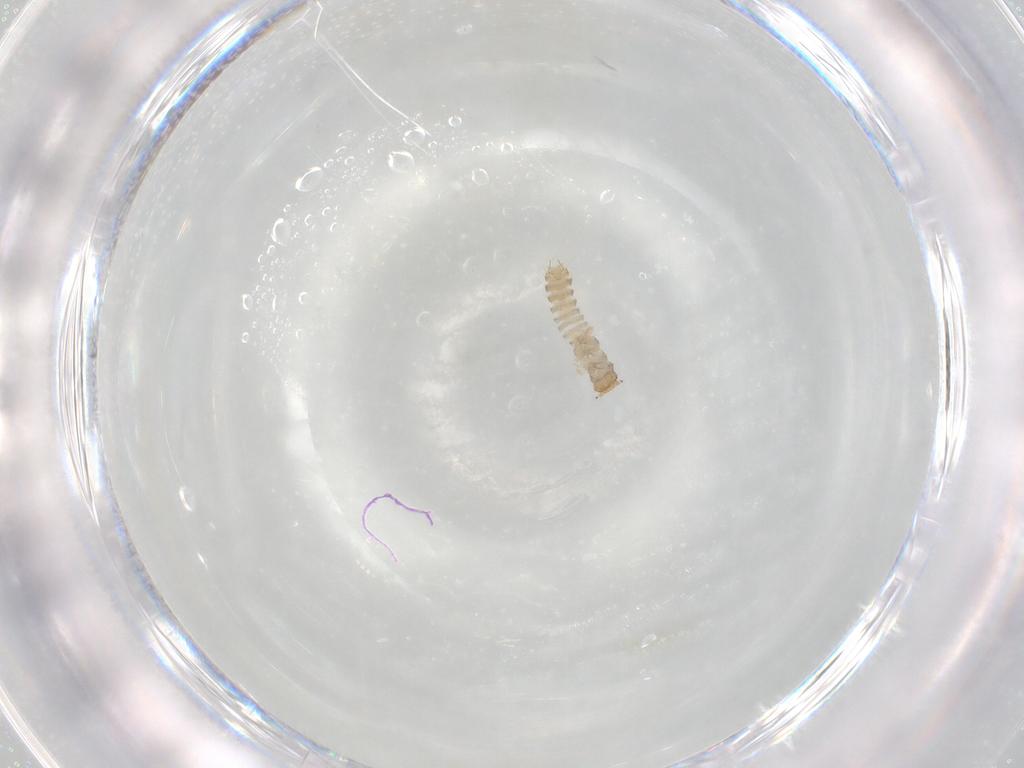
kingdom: Animalia
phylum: Arthropoda
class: Insecta
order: Coleoptera
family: Staphylinidae
